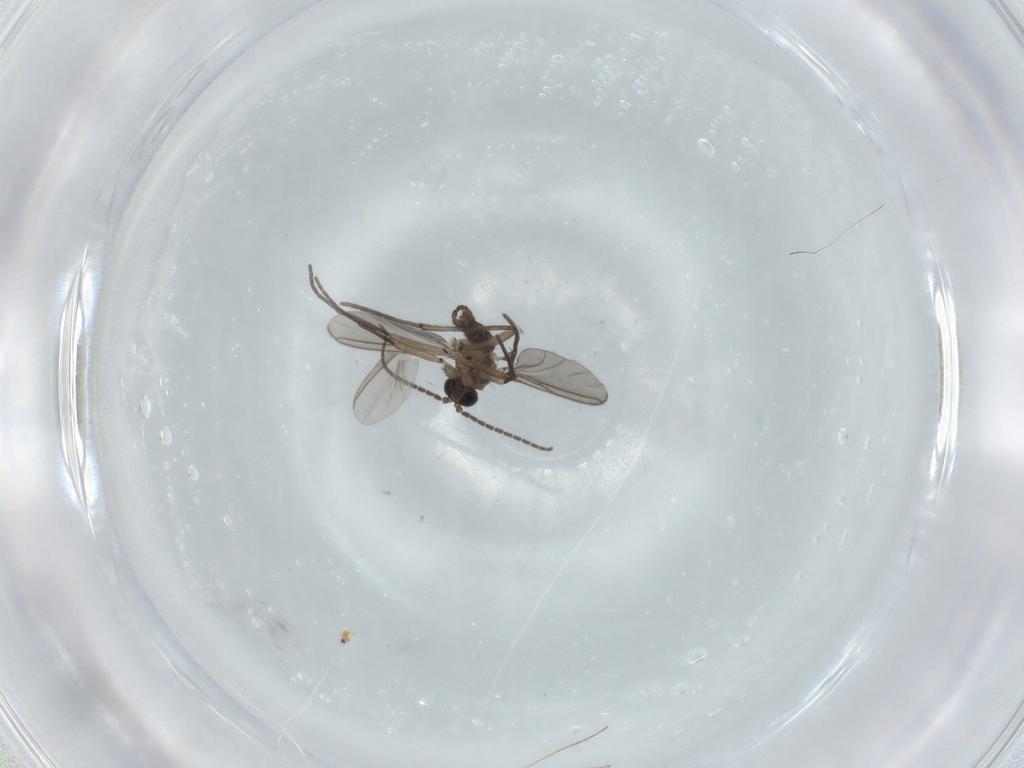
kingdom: Animalia
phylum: Arthropoda
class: Insecta
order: Diptera
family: Sciaridae
